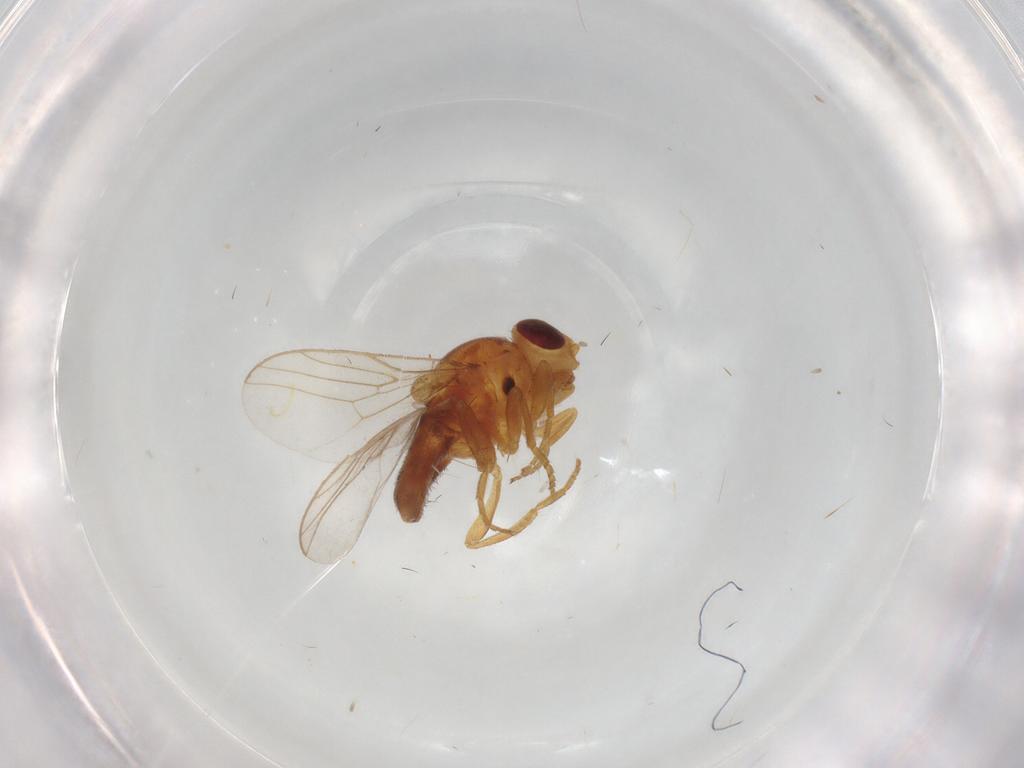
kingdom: Animalia
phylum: Arthropoda
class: Insecta
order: Diptera
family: Chloropidae
